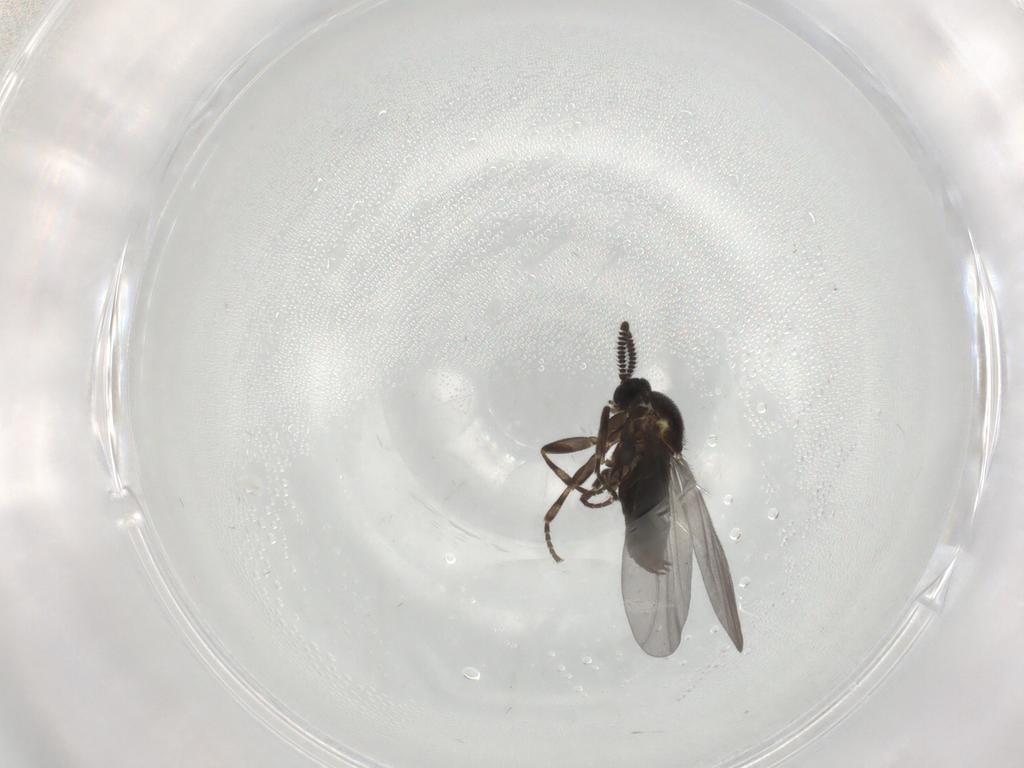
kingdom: Animalia
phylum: Arthropoda
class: Insecta
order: Diptera
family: Scatopsidae
